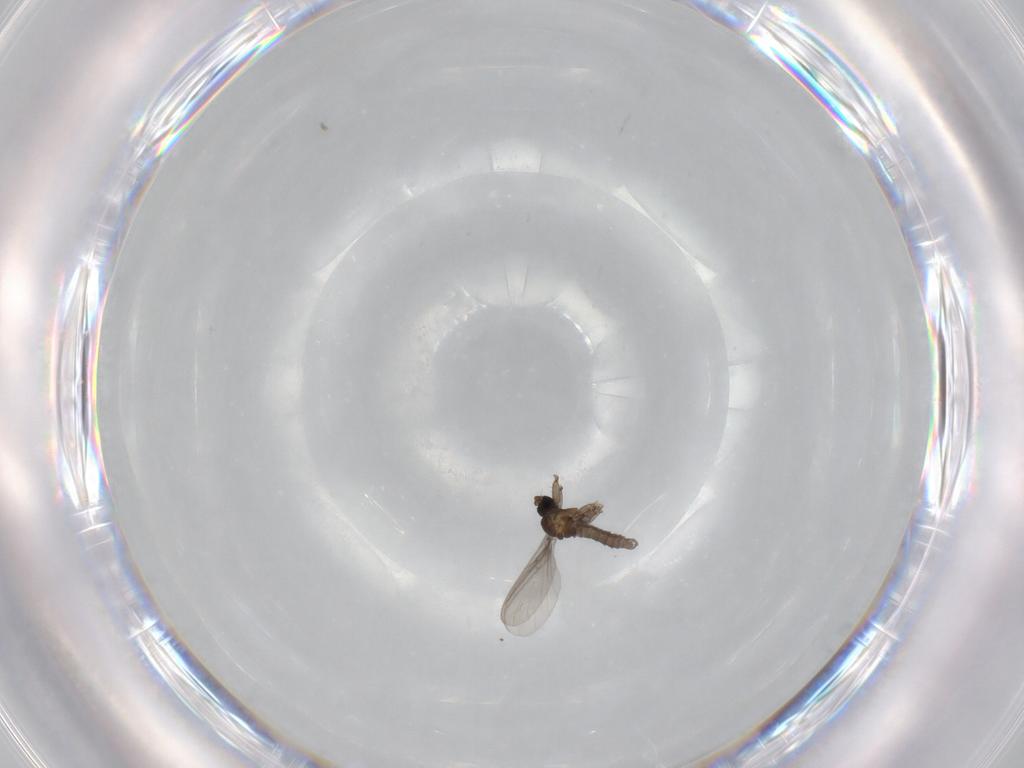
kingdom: Animalia
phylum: Arthropoda
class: Insecta
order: Diptera
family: Sciaridae
